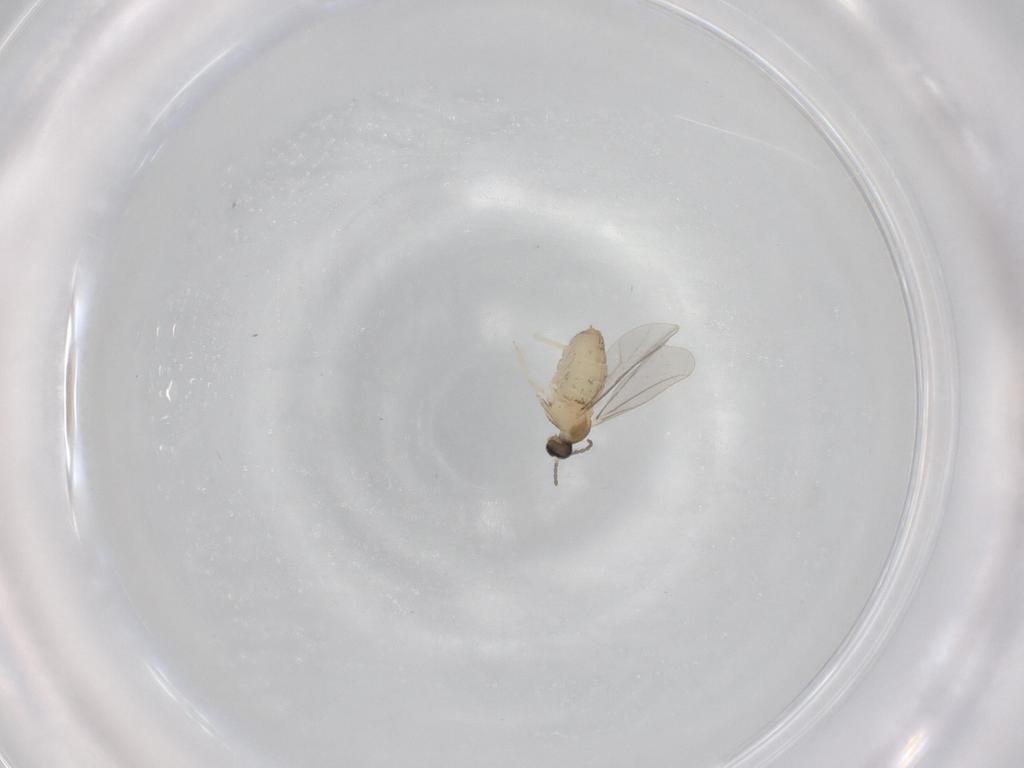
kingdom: Animalia
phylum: Arthropoda
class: Insecta
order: Diptera
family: Cecidomyiidae
